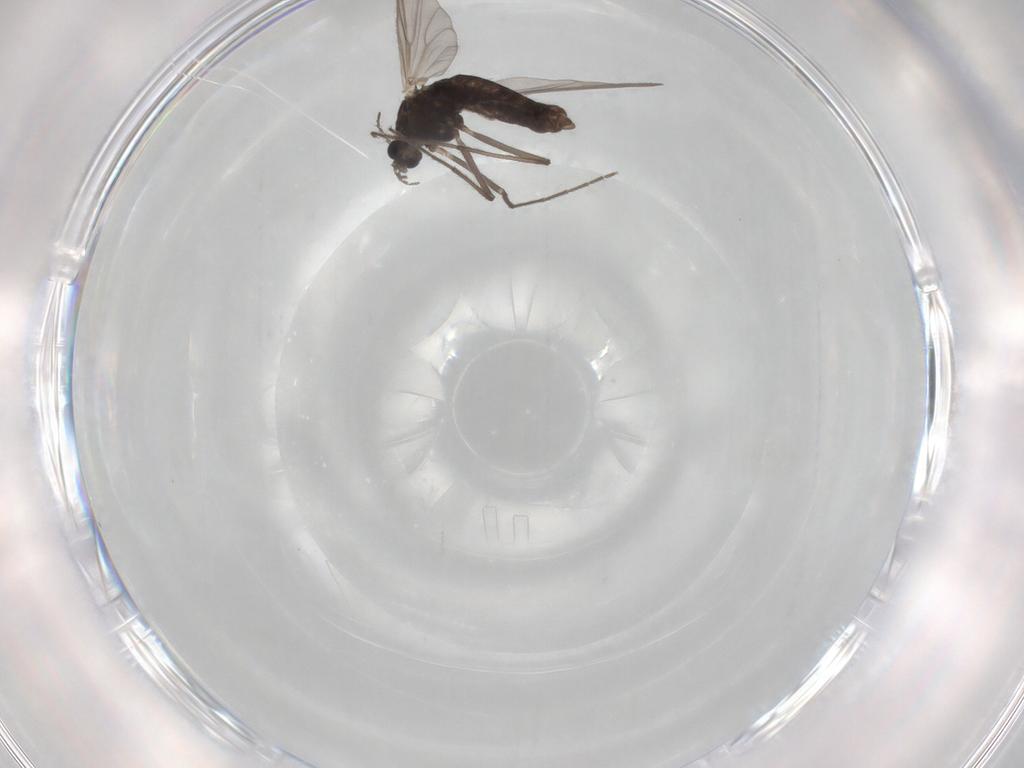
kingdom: Animalia
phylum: Arthropoda
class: Insecta
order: Diptera
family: Chironomidae
